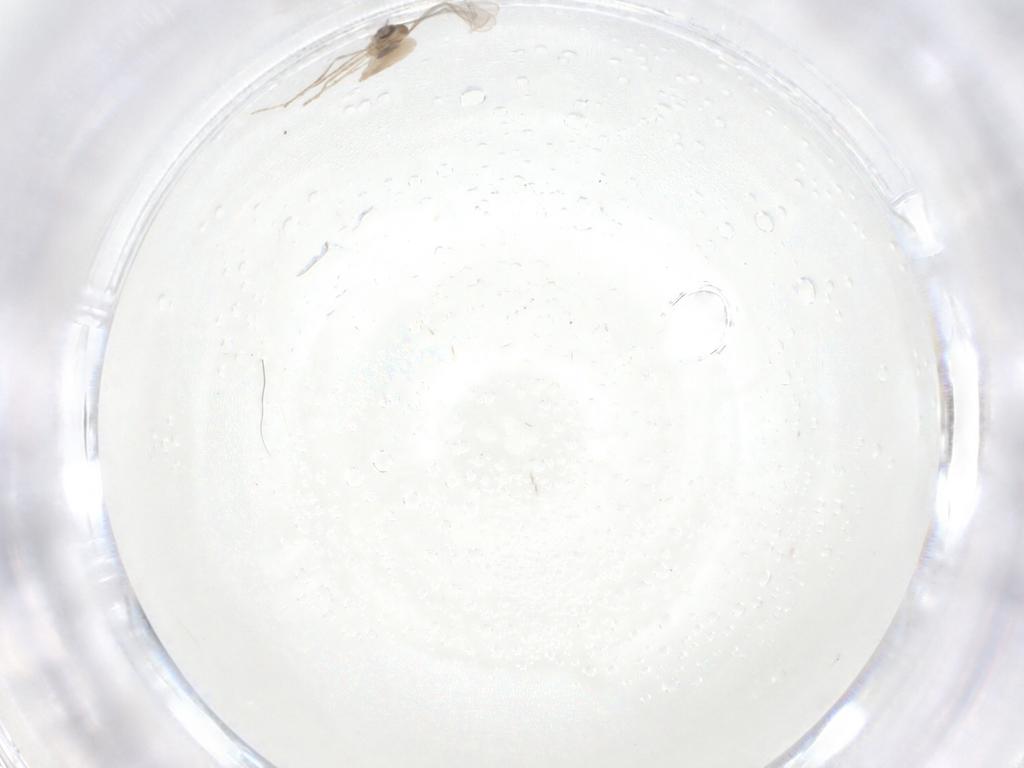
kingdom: Animalia
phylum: Arthropoda
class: Insecta
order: Diptera
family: Cecidomyiidae
